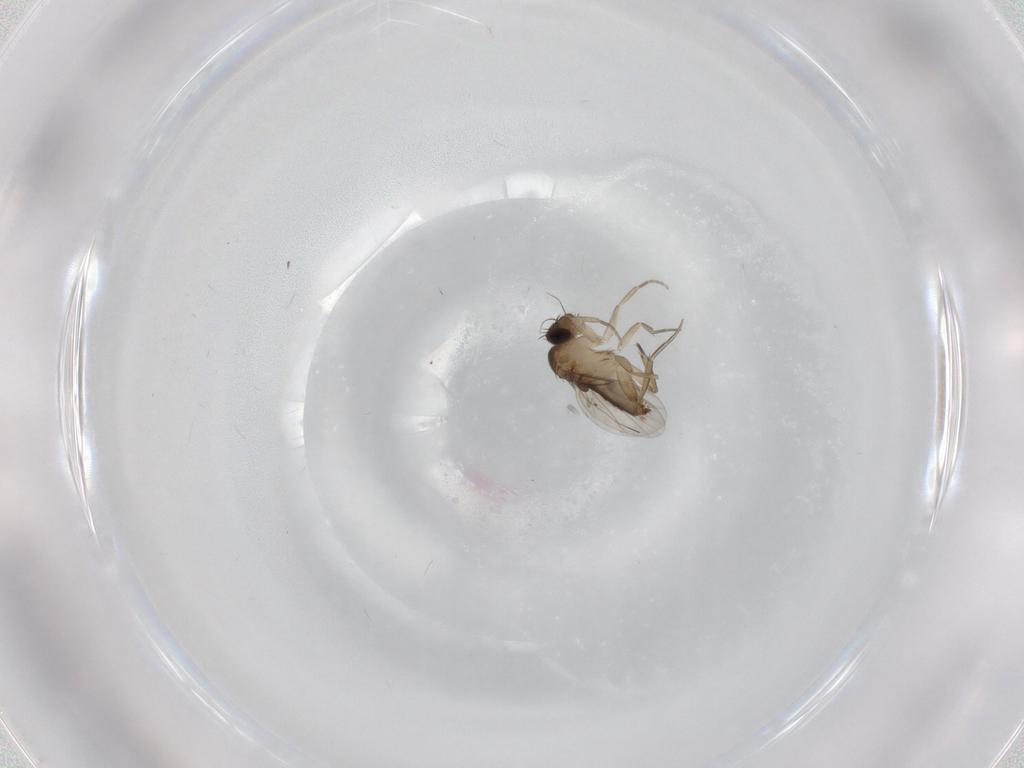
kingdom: Animalia
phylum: Arthropoda
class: Insecta
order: Diptera
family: Phoridae
